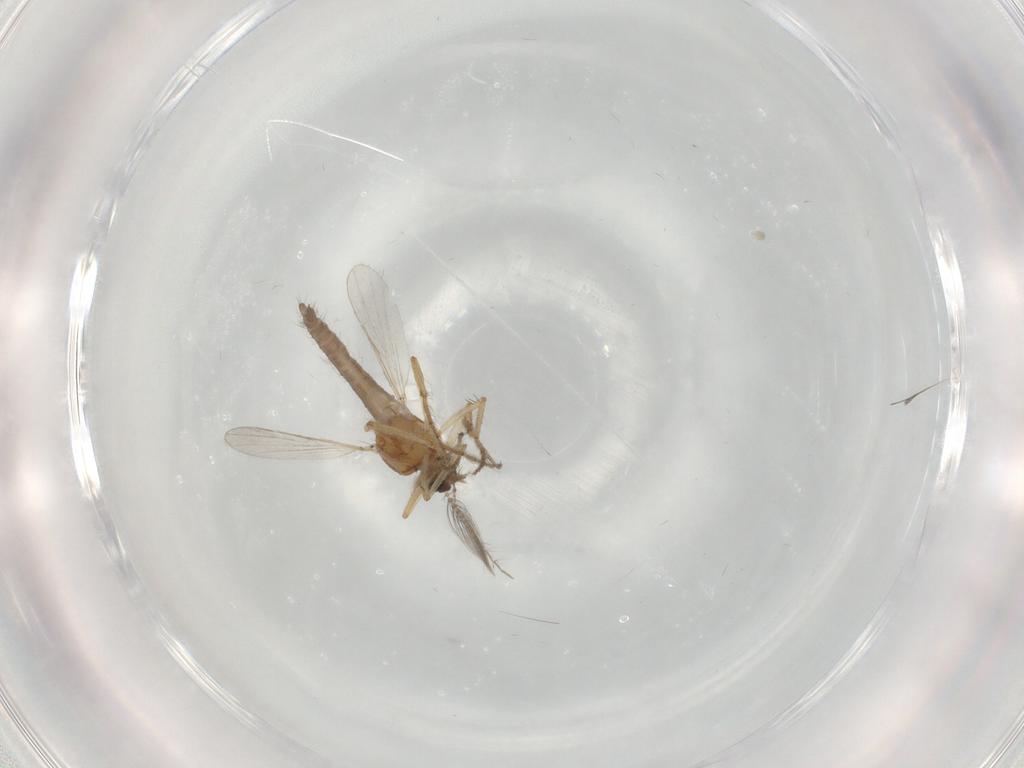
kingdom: Animalia
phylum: Arthropoda
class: Insecta
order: Diptera
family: Ceratopogonidae
